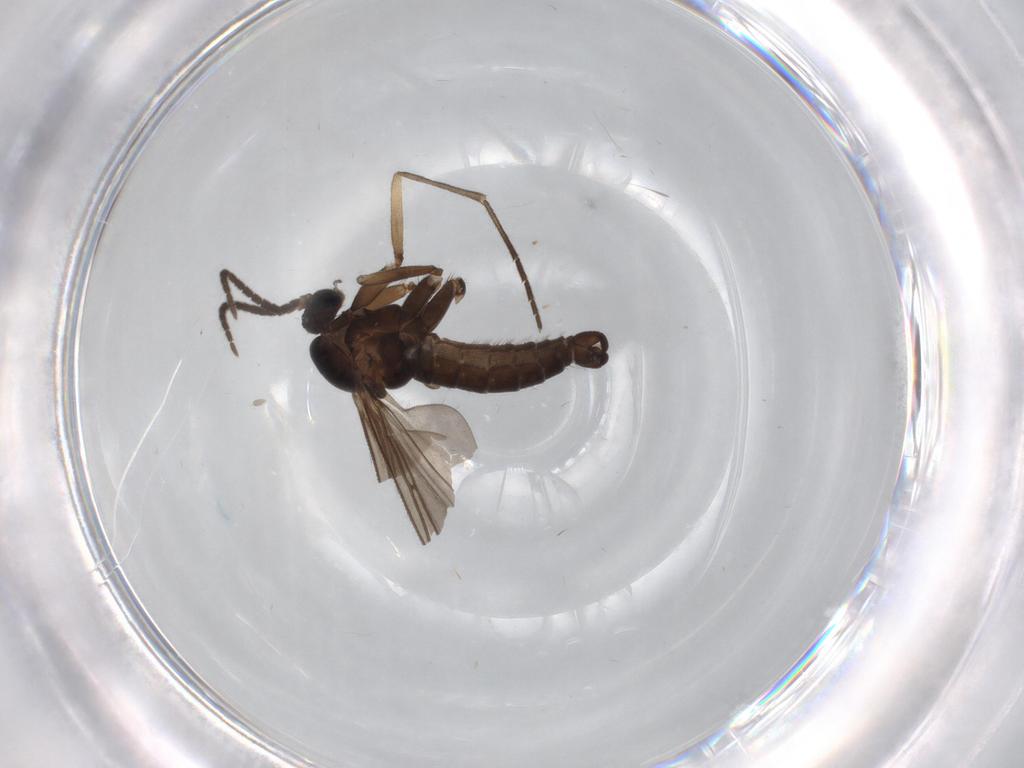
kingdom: Animalia
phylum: Arthropoda
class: Insecta
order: Diptera
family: Sciaridae
